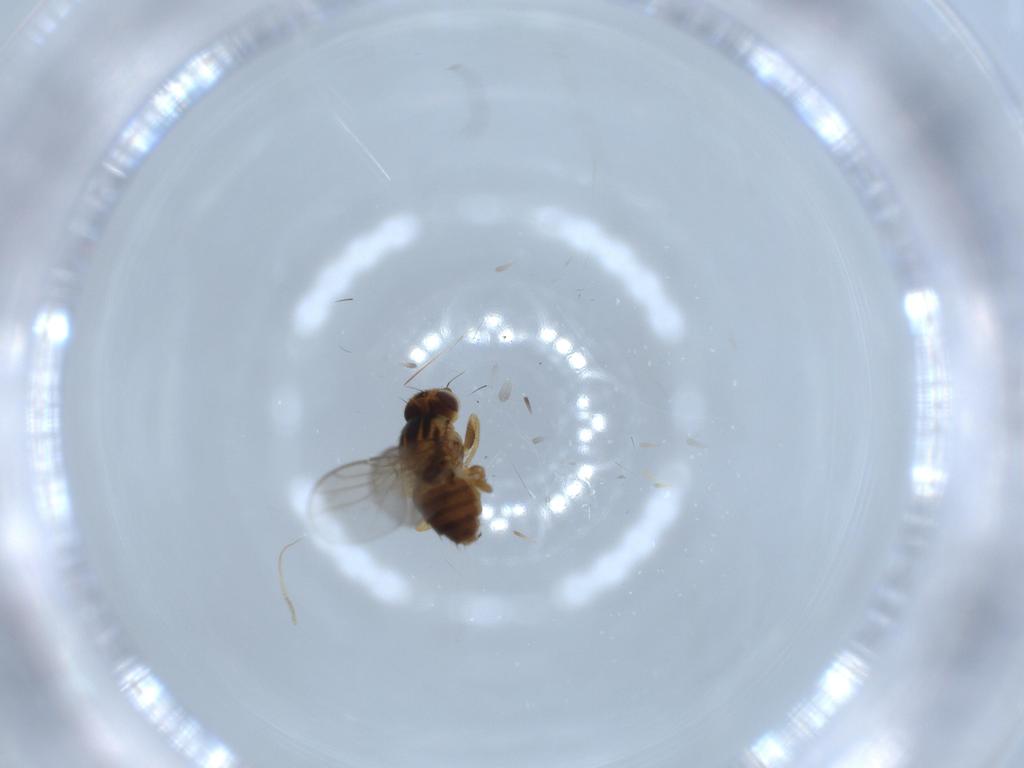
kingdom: Animalia
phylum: Arthropoda
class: Insecta
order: Diptera
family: Chloropidae
